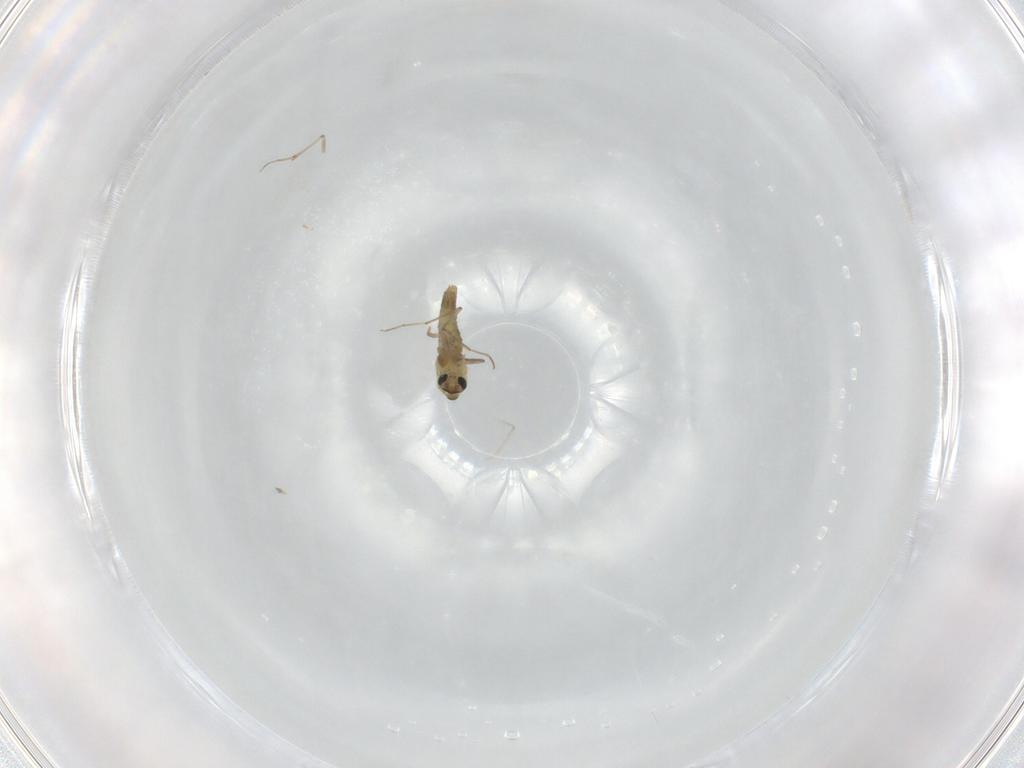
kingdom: Animalia
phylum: Arthropoda
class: Insecta
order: Diptera
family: Chironomidae
